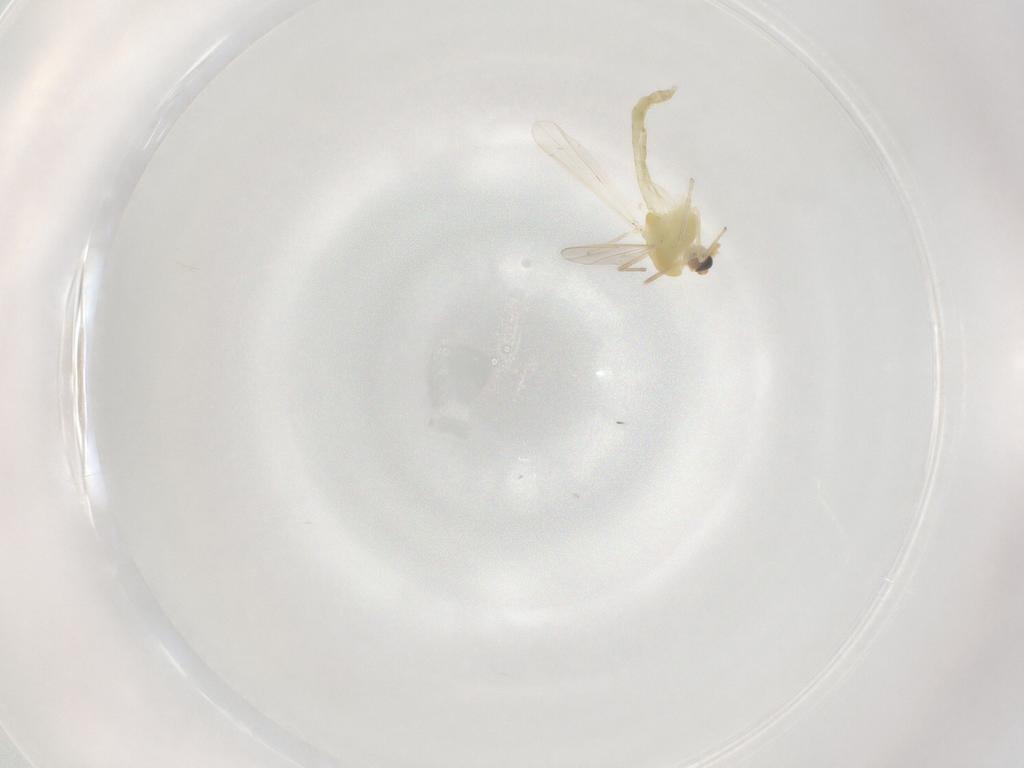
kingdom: Animalia
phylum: Arthropoda
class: Insecta
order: Diptera
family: Chironomidae
